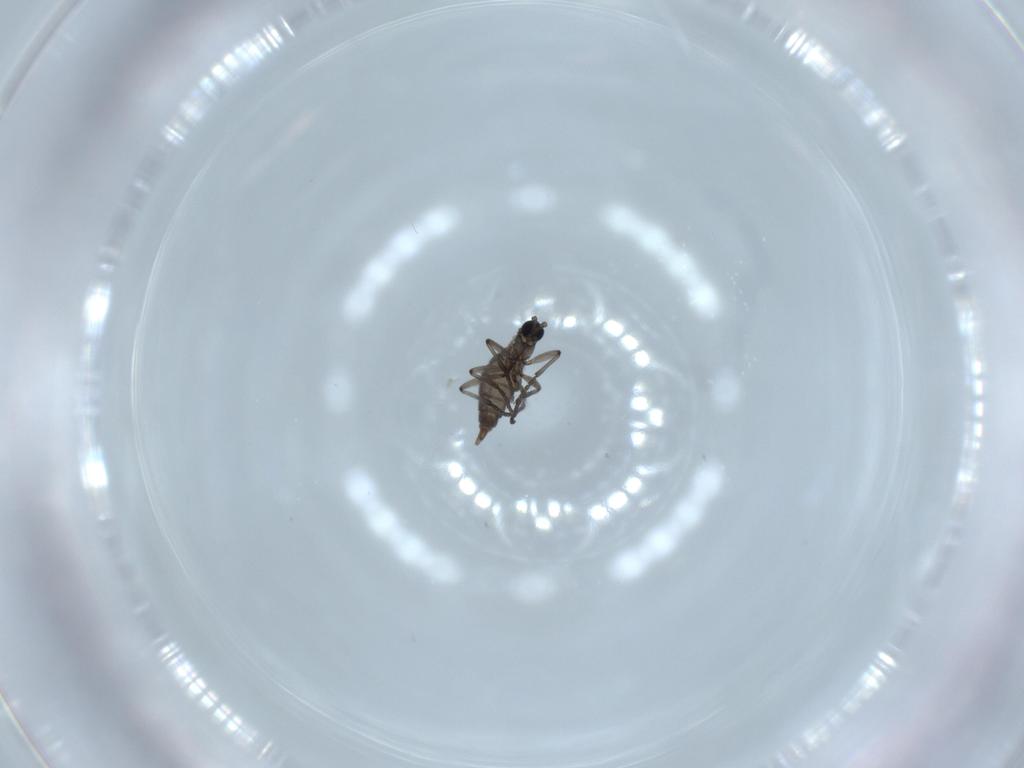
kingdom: Animalia
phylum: Arthropoda
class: Insecta
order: Diptera
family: Sciaridae
